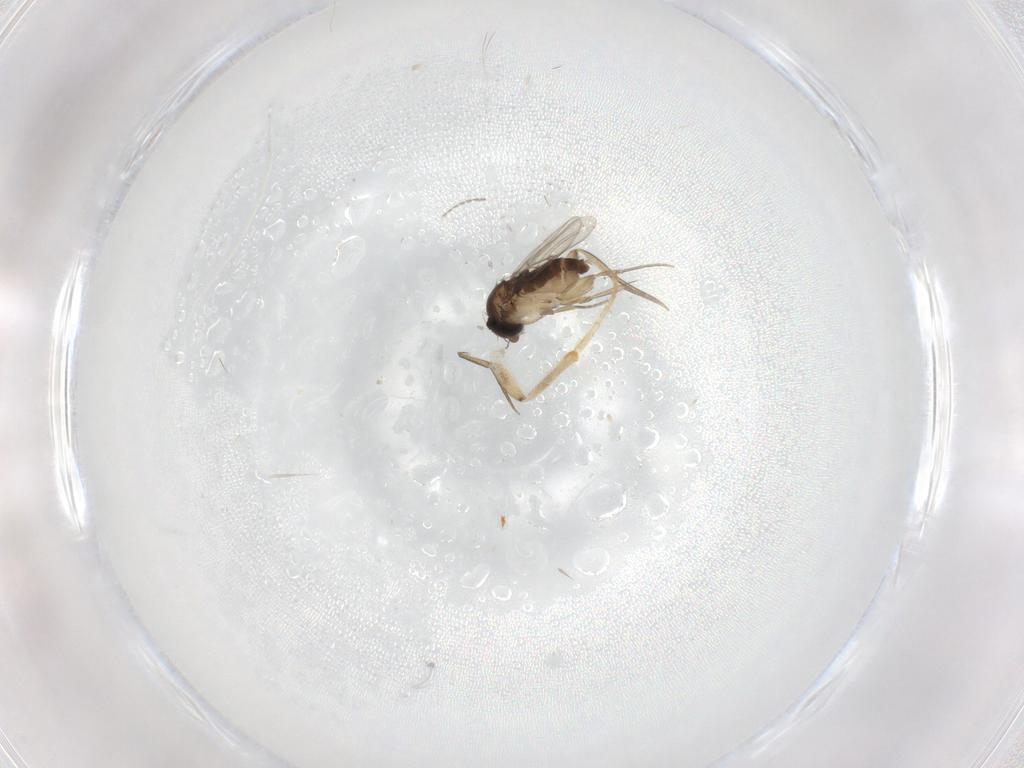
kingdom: Animalia
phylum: Arthropoda
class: Insecta
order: Diptera
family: Hybotidae
